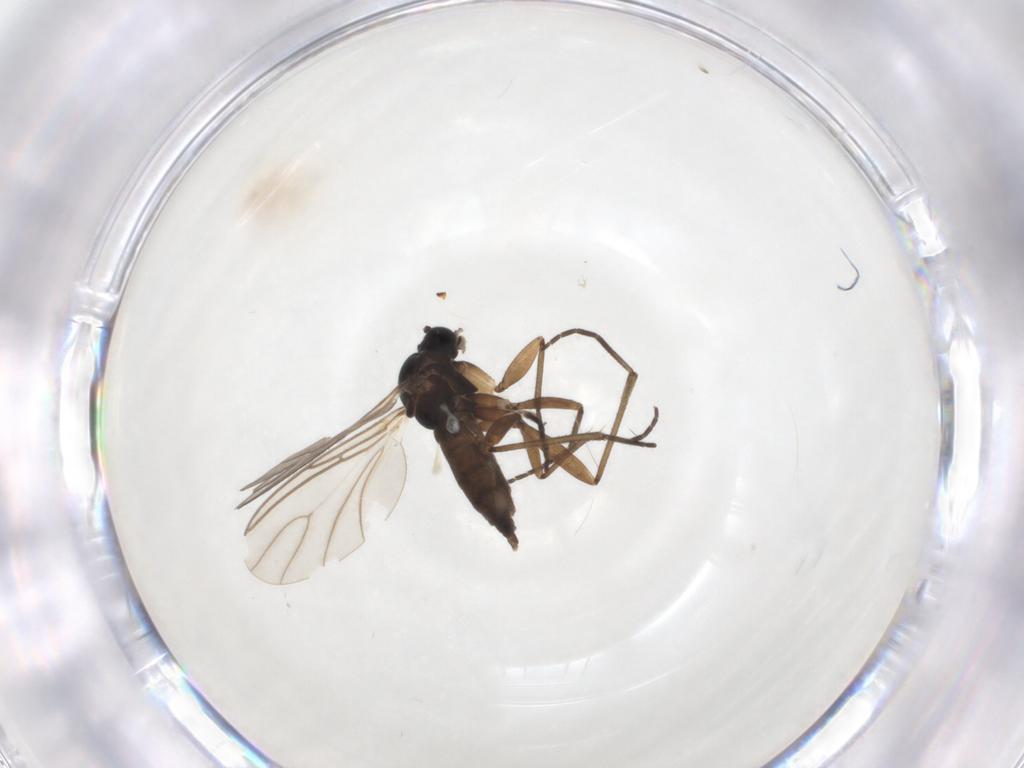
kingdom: Animalia
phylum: Arthropoda
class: Insecta
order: Diptera
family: Sciaridae
